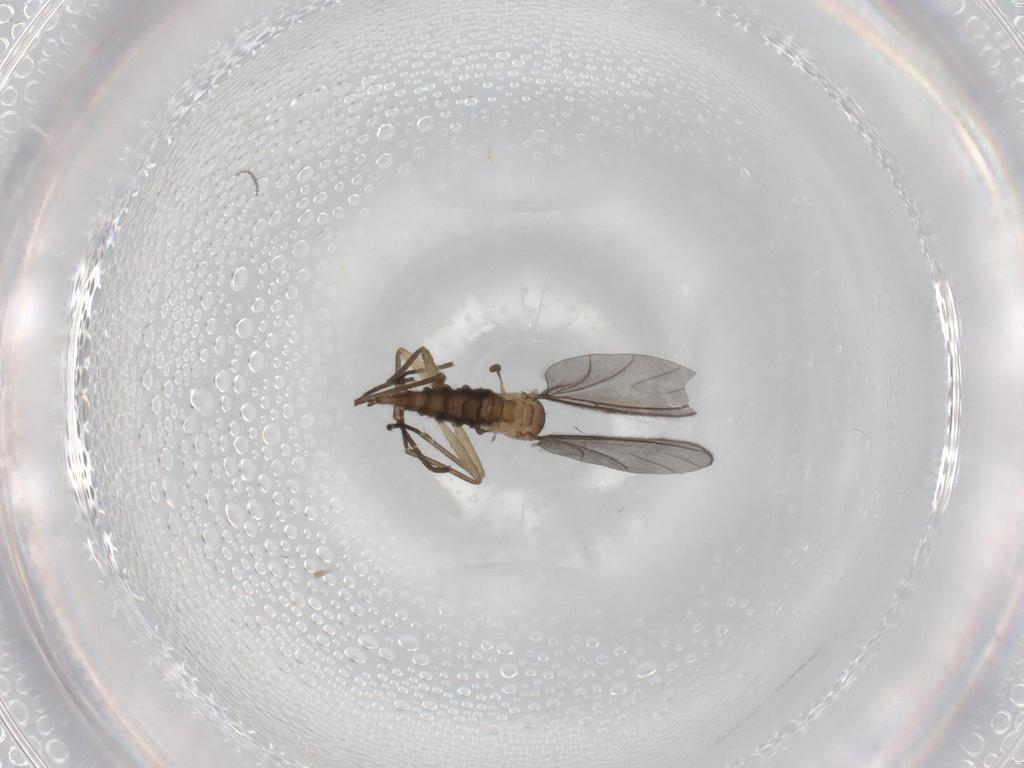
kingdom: Animalia
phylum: Arthropoda
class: Insecta
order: Diptera
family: Sciaridae
